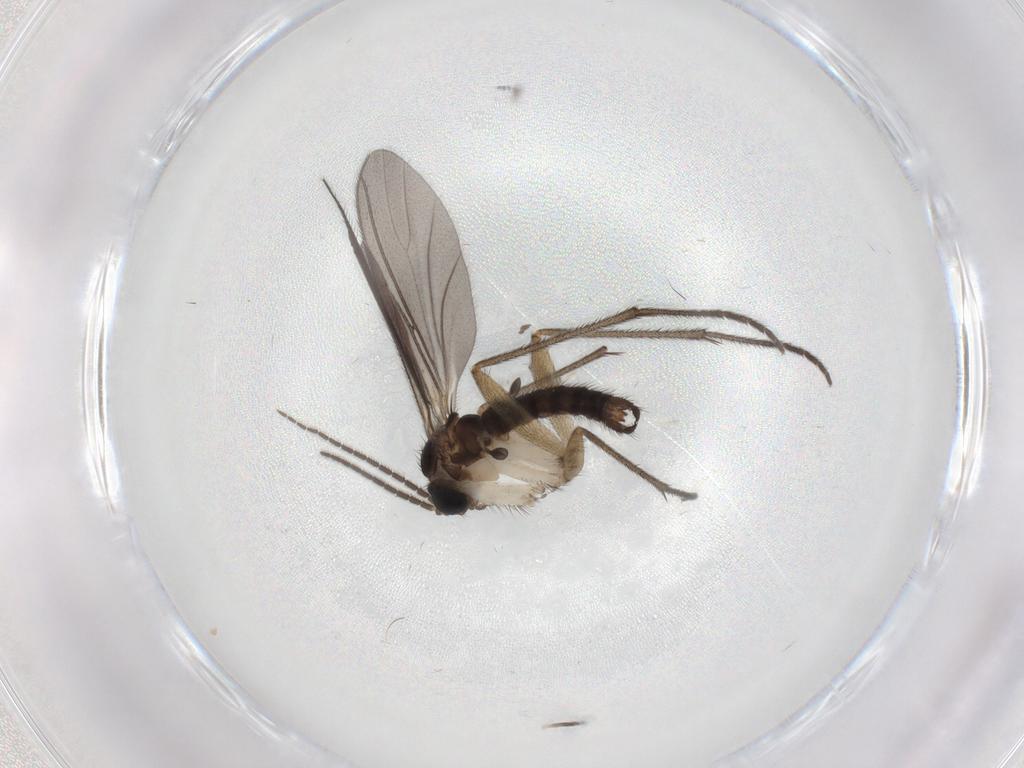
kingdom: Animalia
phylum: Arthropoda
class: Insecta
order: Diptera
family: Sciaridae
